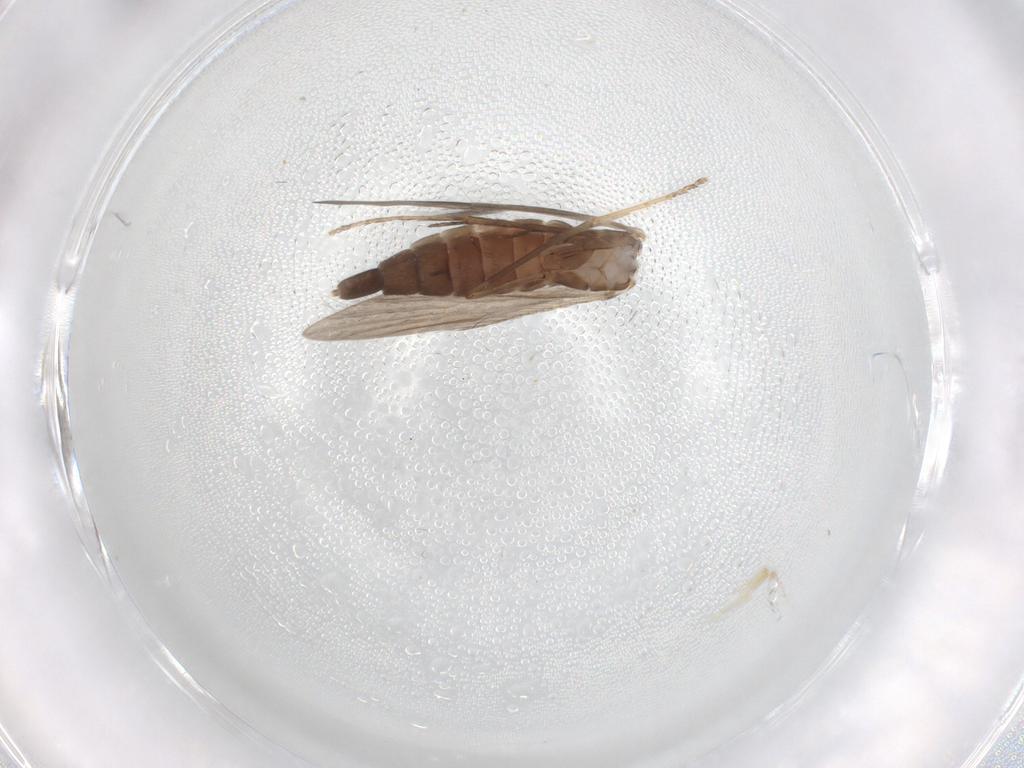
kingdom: Animalia
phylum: Arthropoda
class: Insecta
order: Trichoptera
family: Xiphocentronidae
